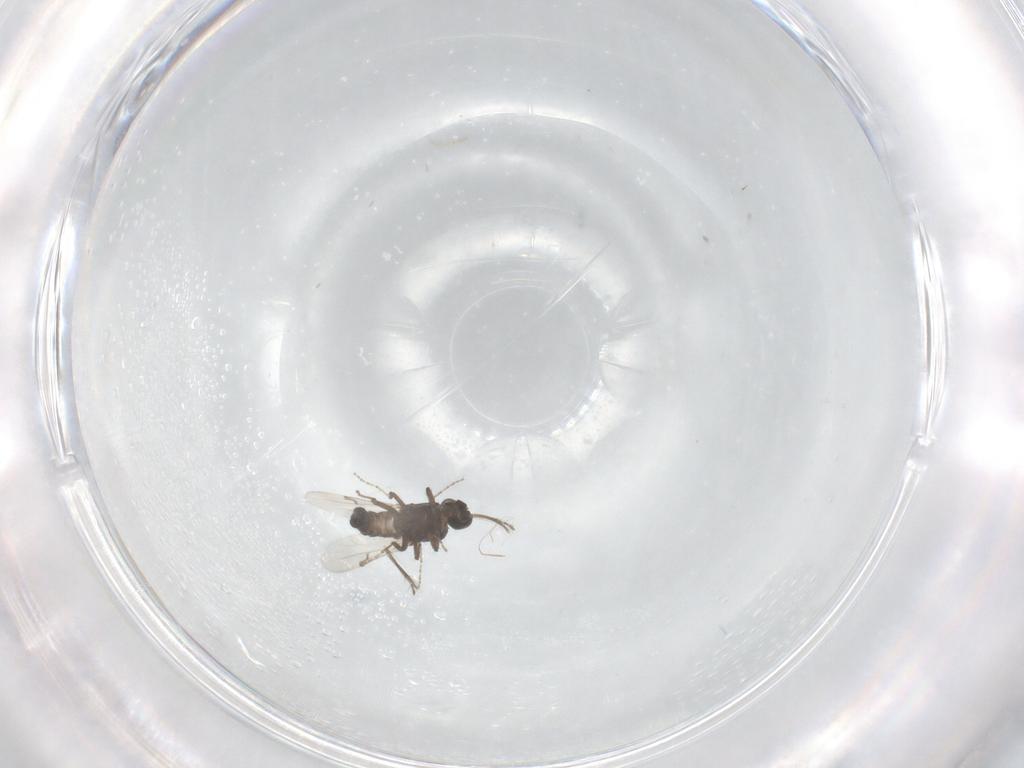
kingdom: Animalia
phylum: Arthropoda
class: Insecta
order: Diptera
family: Ceratopogonidae
